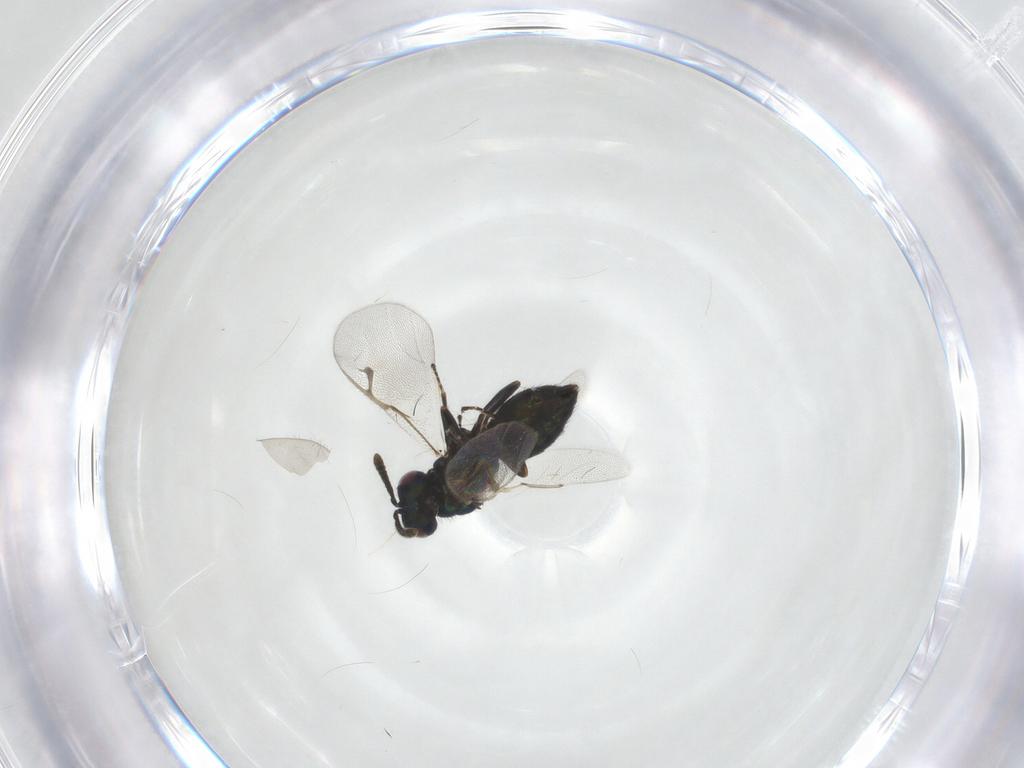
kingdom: Animalia
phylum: Arthropoda
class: Insecta
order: Hymenoptera
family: Pteromalidae
